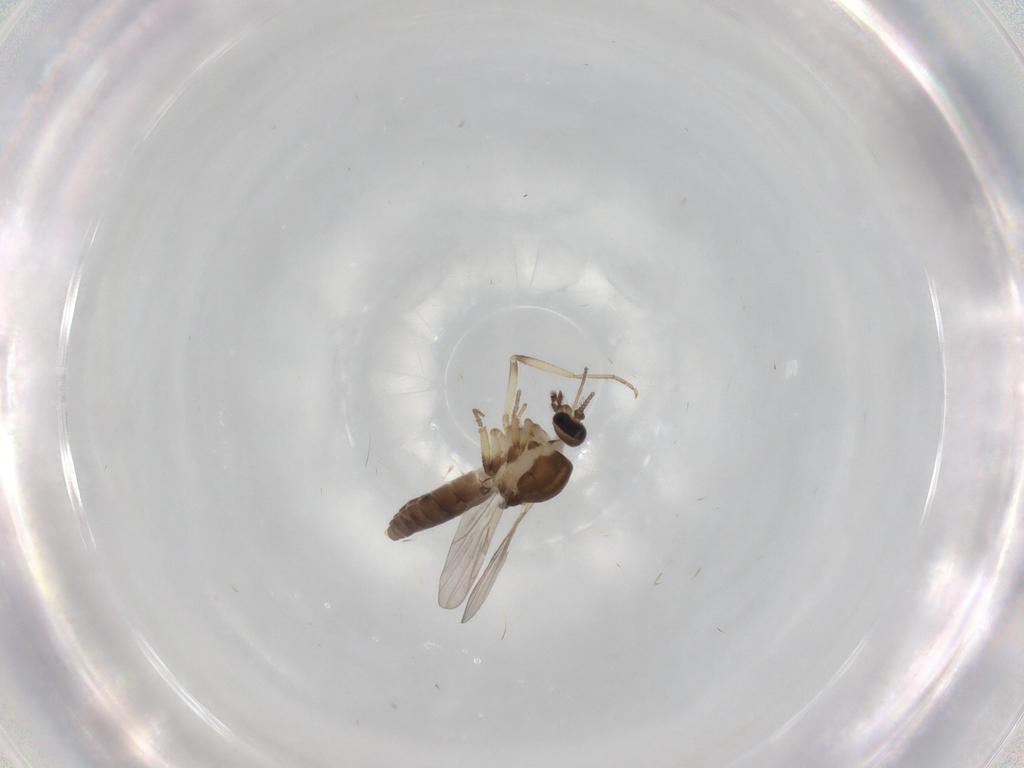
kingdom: Animalia
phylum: Arthropoda
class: Insecta
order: Diptera
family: Ceratopogonidae
